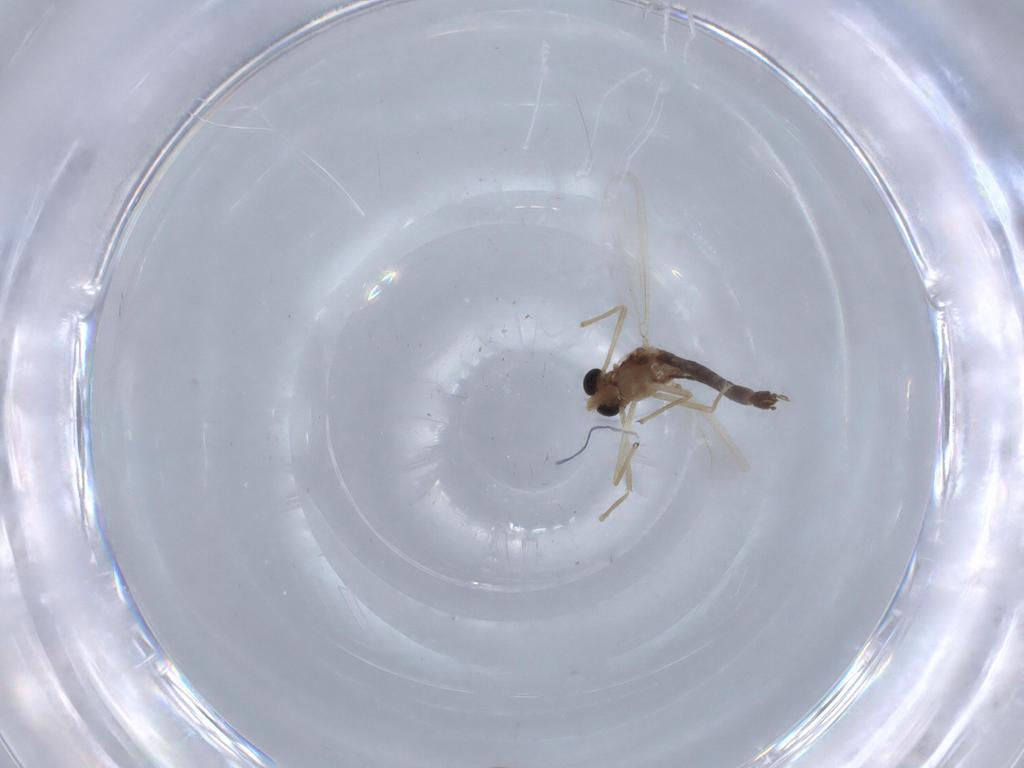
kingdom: Animalia
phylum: Arthropoda
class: Insecta
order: Diptera
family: Chironomidae
